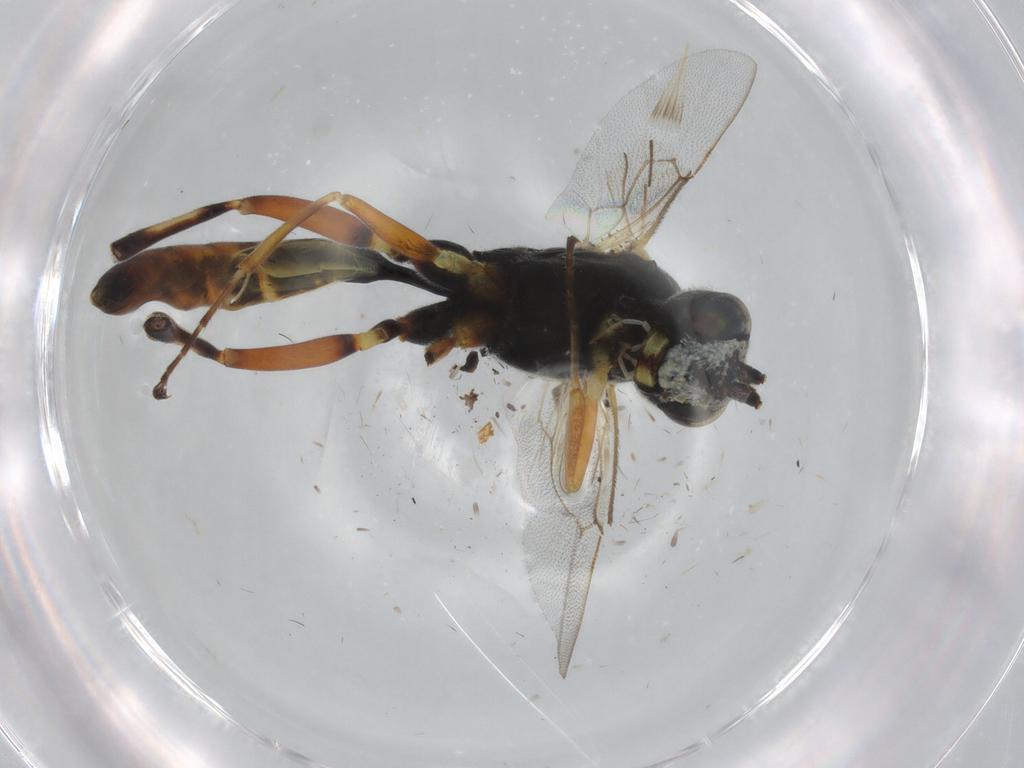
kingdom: Animalia
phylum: Arthropoda
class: Insecta
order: Hymenoptera
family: Ichneumonidae
